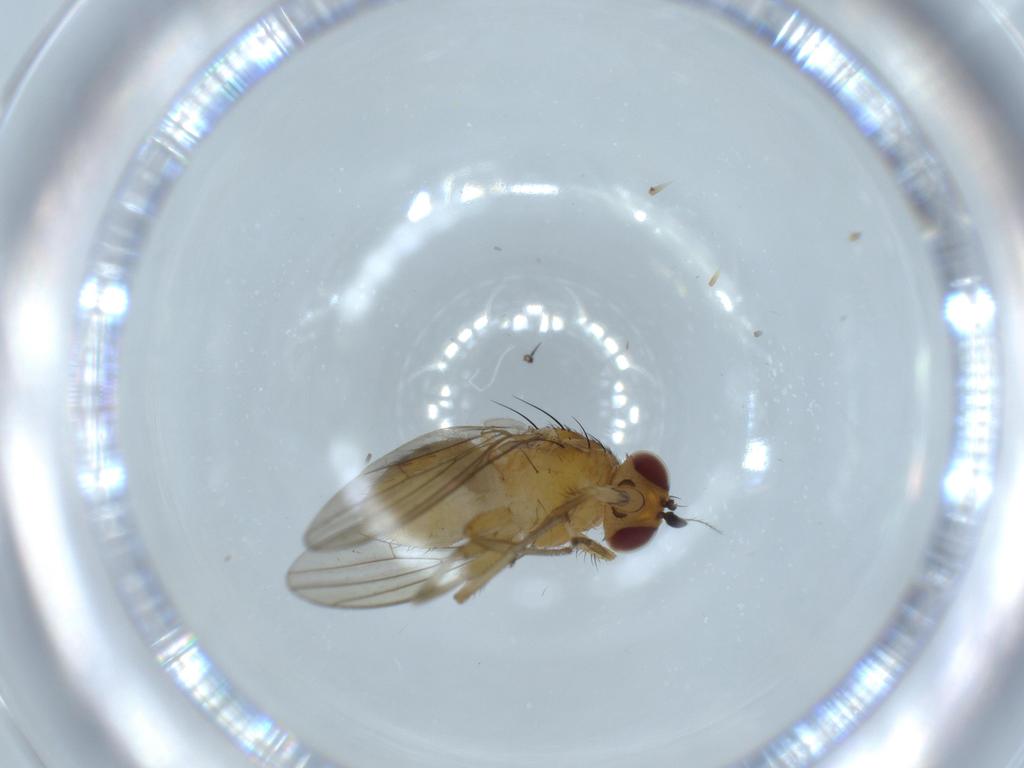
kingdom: Animalia
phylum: Arthropoda
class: Insecta
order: Diptera
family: Lauxaniidae
